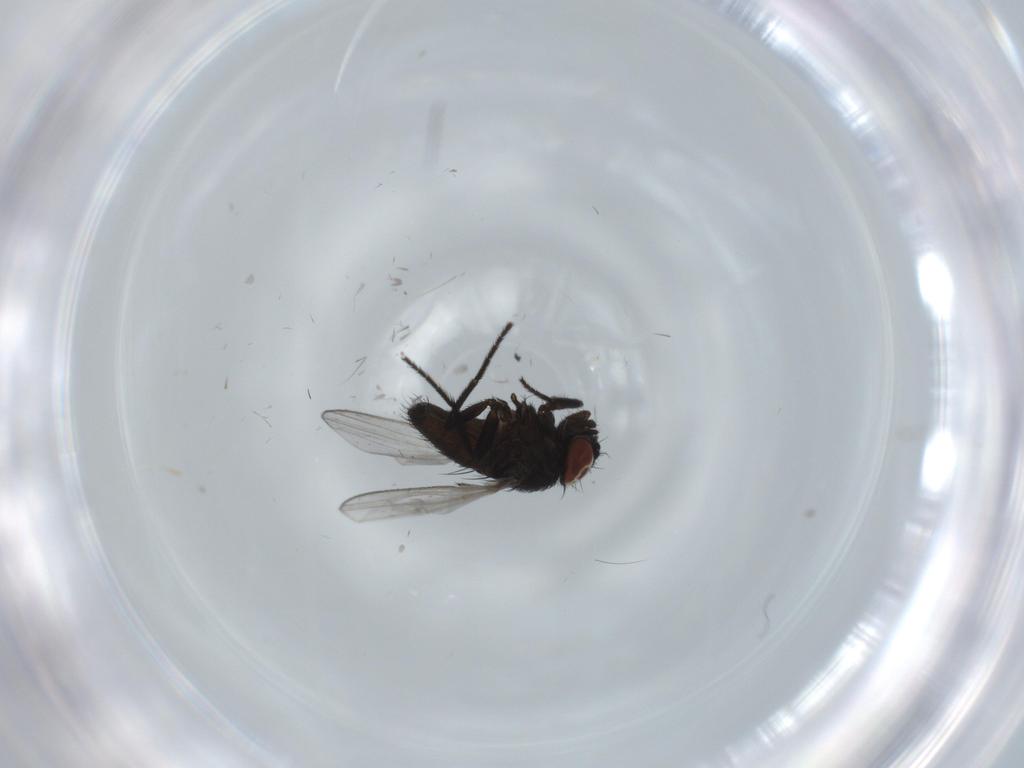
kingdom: Animalia
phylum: Arthropoda
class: Insecta
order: Diptera
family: Milichiidae
